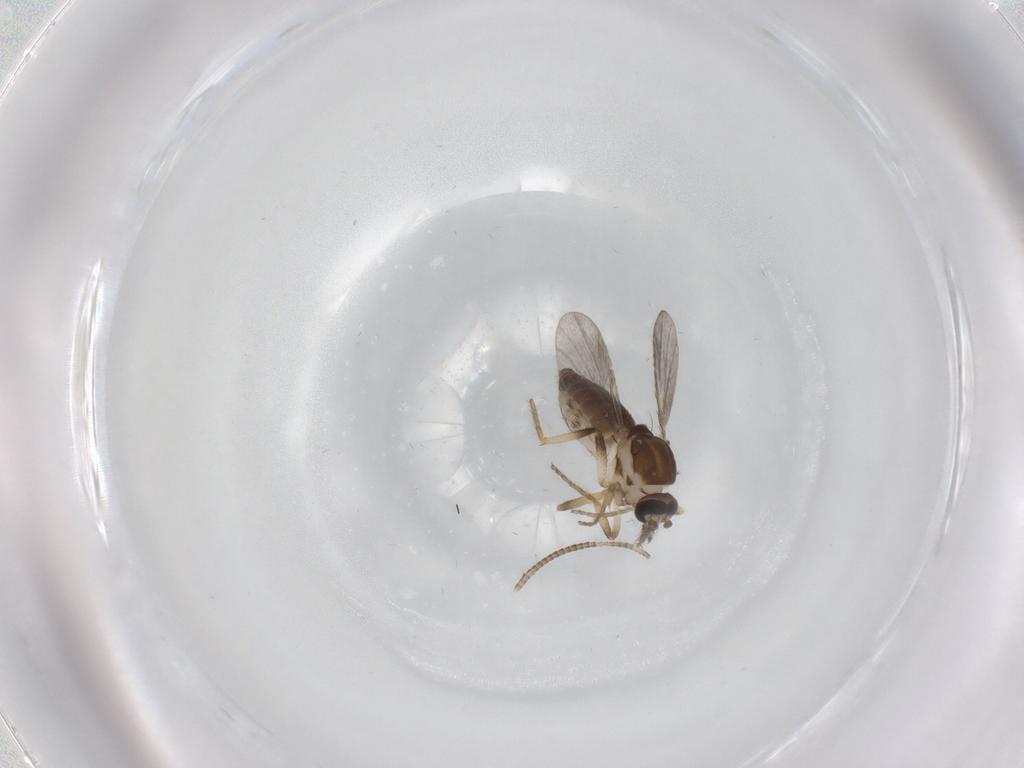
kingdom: Animalia
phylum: Arthropoda
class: Insecta
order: Diptera
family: Ceratopogonidae
